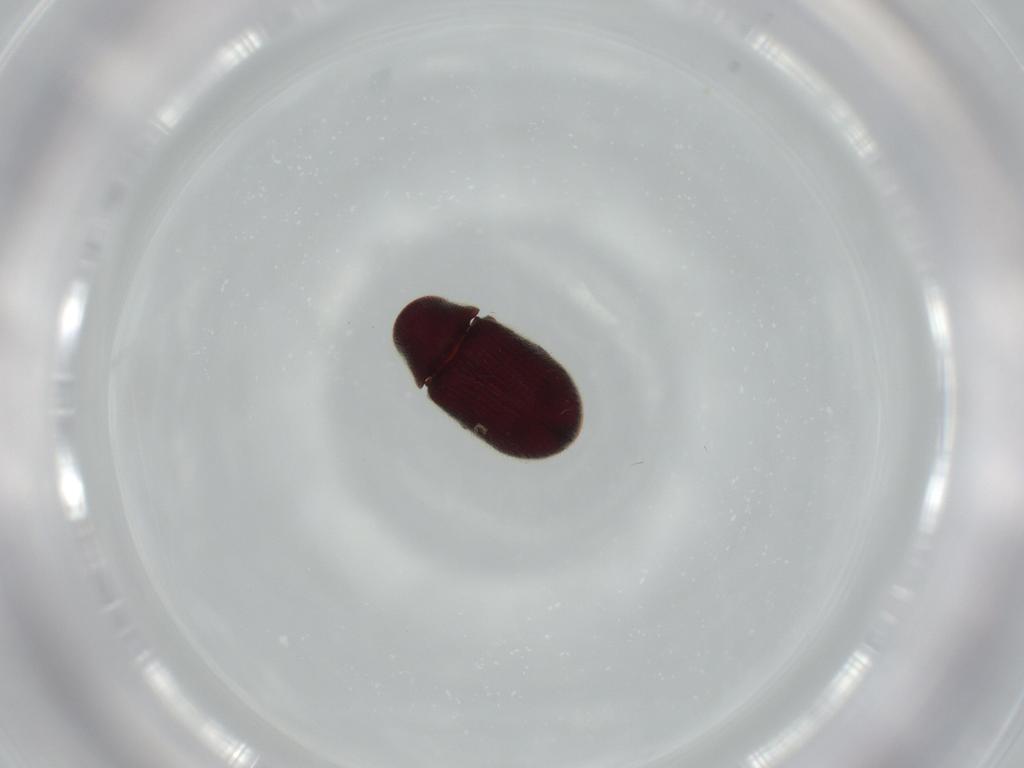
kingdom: Animalia
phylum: Arthropoda
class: Insecta
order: Coleoptera
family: Ptinidae
